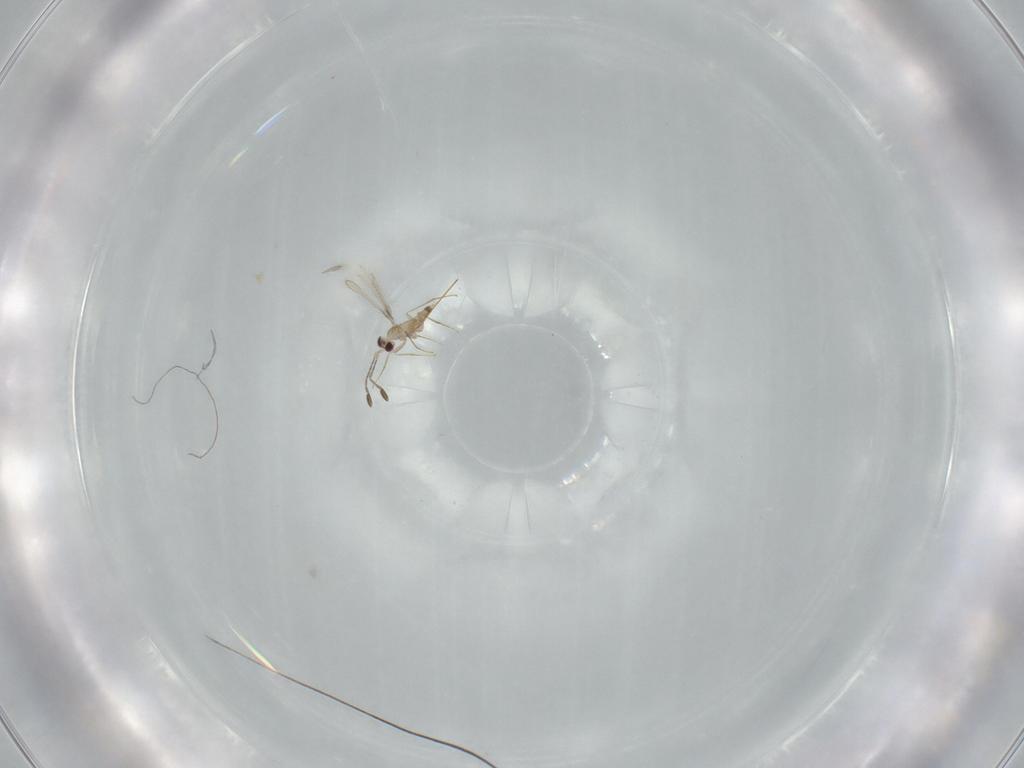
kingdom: Animalia
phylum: Arthropoda
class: Insecta
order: Hymenoptera
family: Mymaridae
